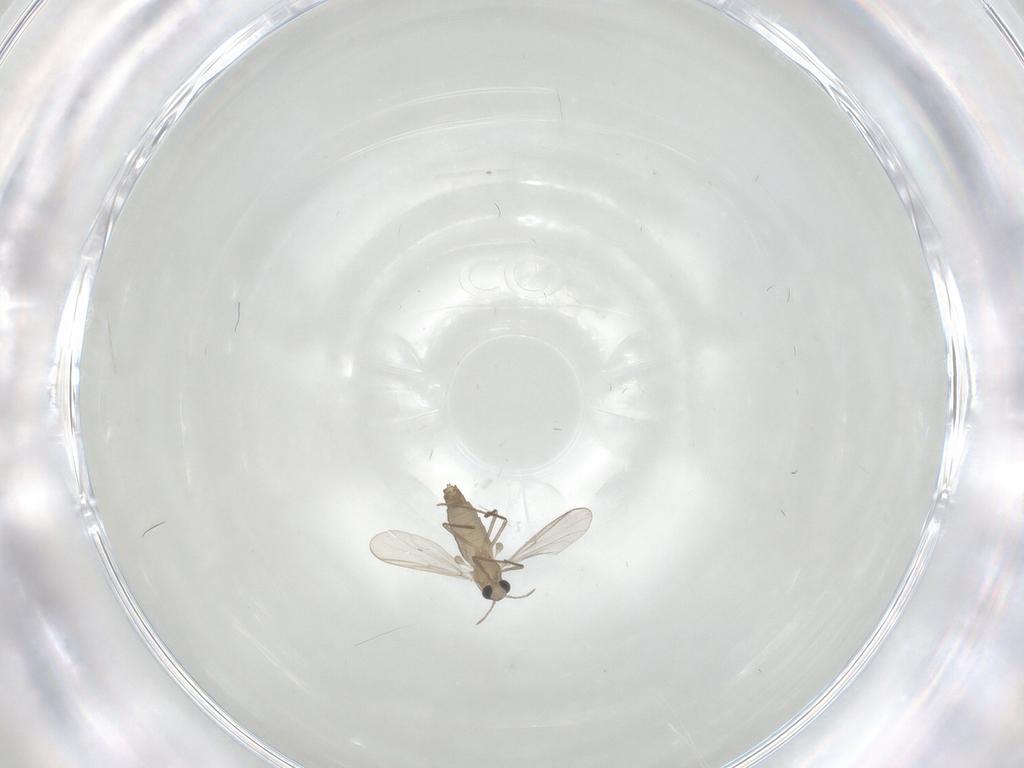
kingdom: Animalia
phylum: Arthropoda
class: Insecta
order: Diptera
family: Chironomidae
